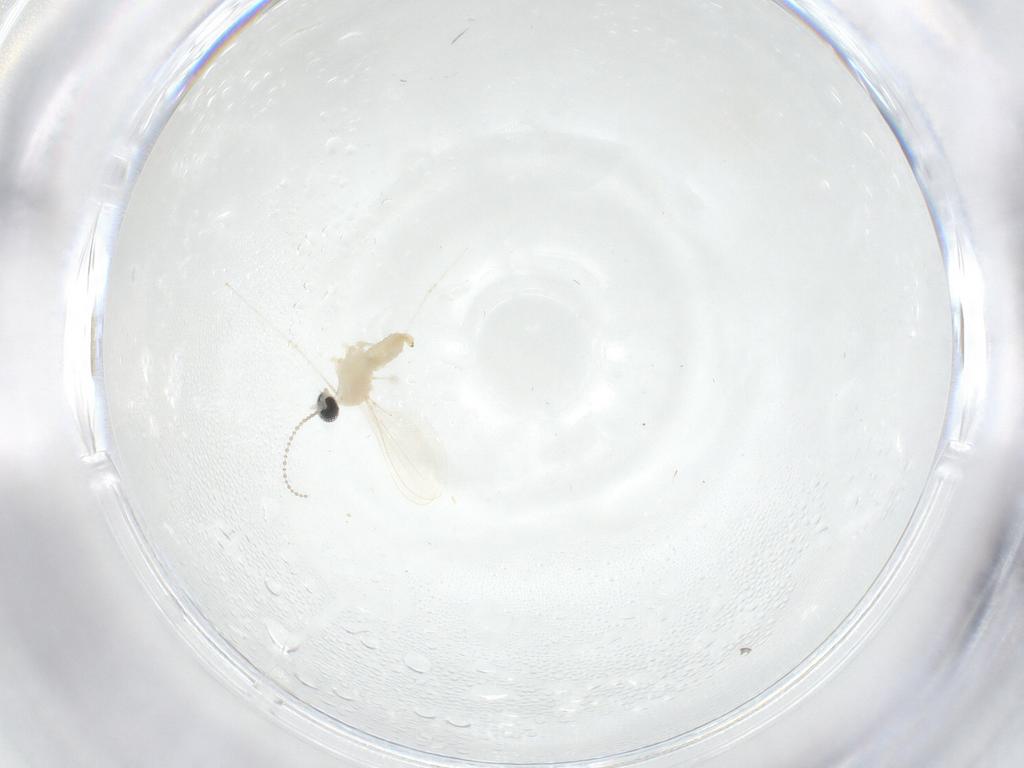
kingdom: Animalia
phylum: Arthropoda
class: Insecta
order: Diptera
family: Cecidomyiidae
